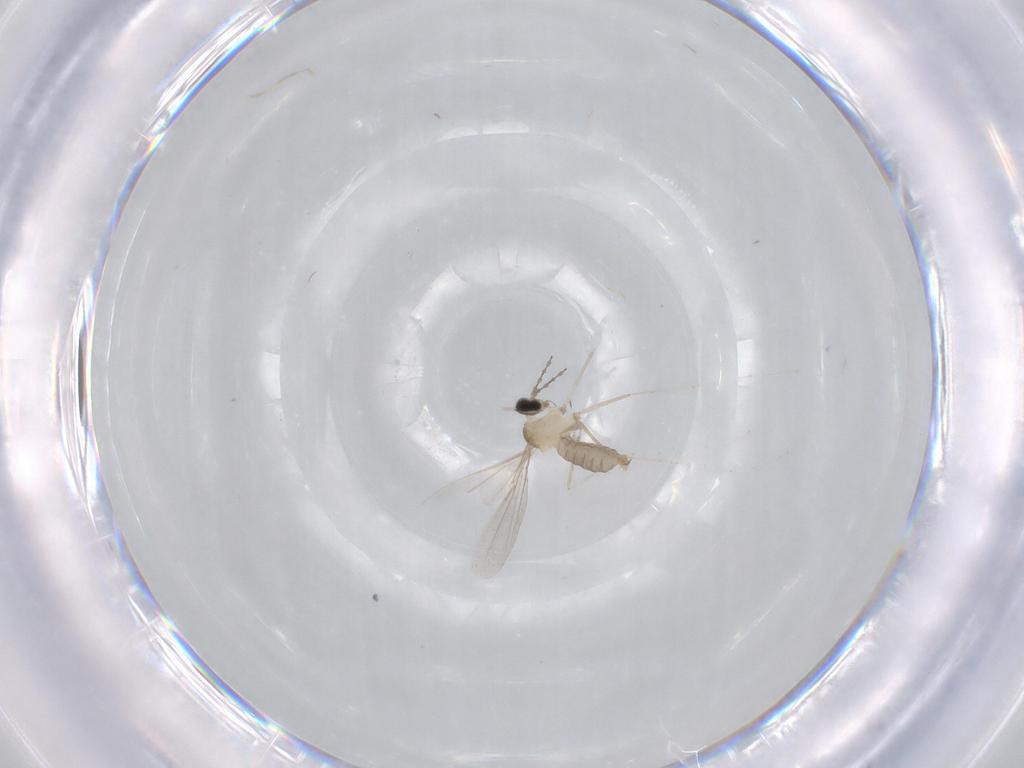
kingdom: Animalia
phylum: Arthropoda
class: Insecta
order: Diptera
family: Cecidomyiidae
